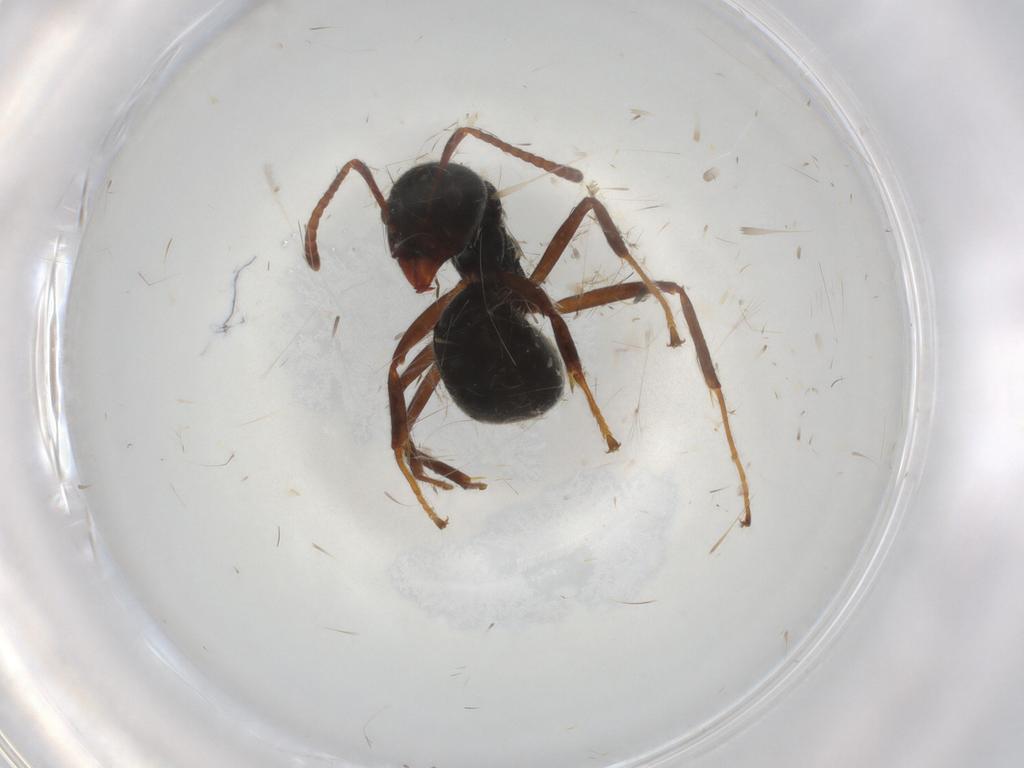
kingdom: Animalia
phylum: Arthropoda
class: Insecta
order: Hymenoptera
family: Formicidae
